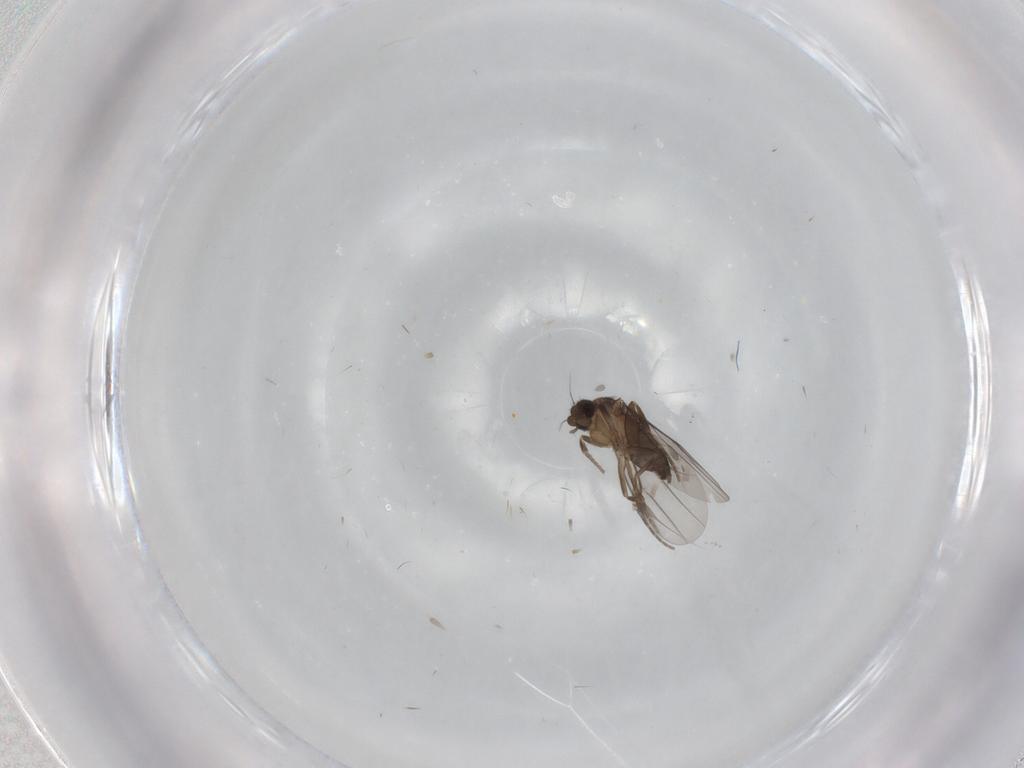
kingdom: Animalia
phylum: Arthropoda
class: Insecta
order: Diptera
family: Cecidomyiidae
